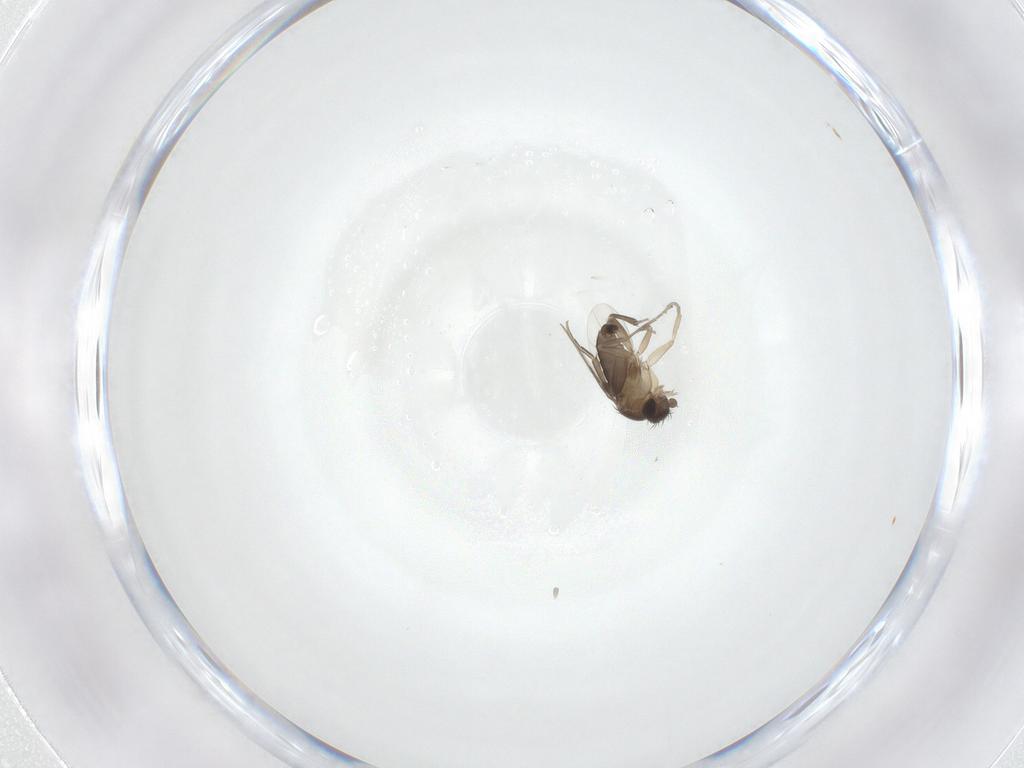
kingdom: Animalia
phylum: Arthropoda
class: Insecta
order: Diptera
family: Phoridae
